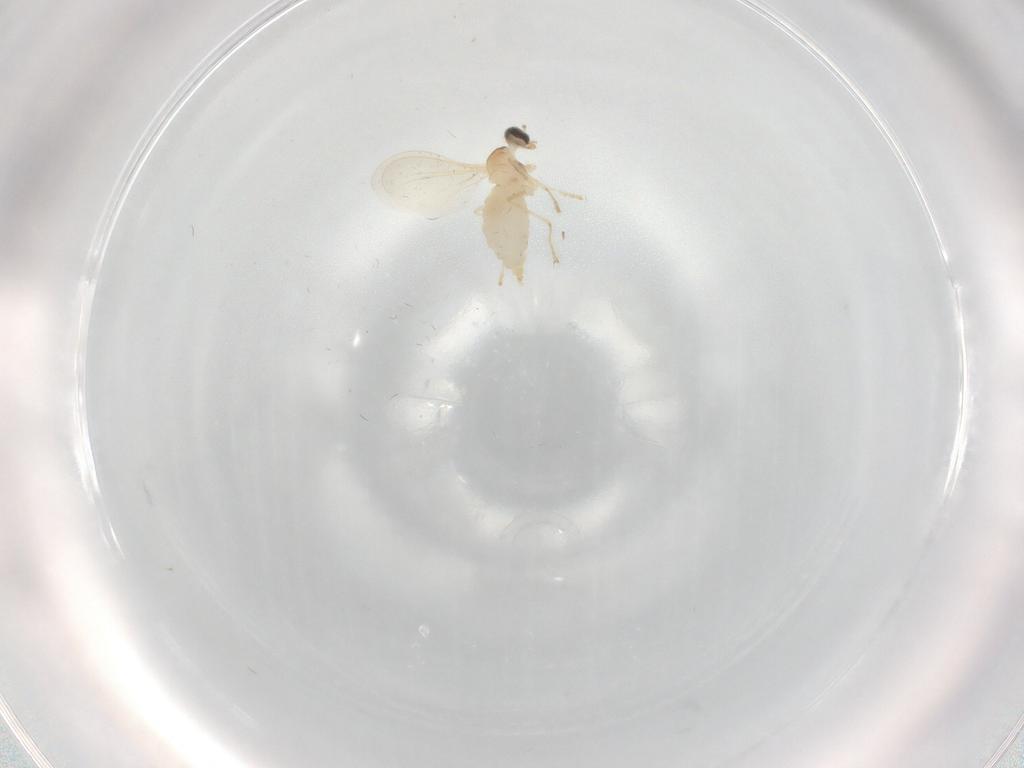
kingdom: Animalia
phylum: Arthropoda
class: Insecta
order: Diptera
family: Cecidomyiidae
